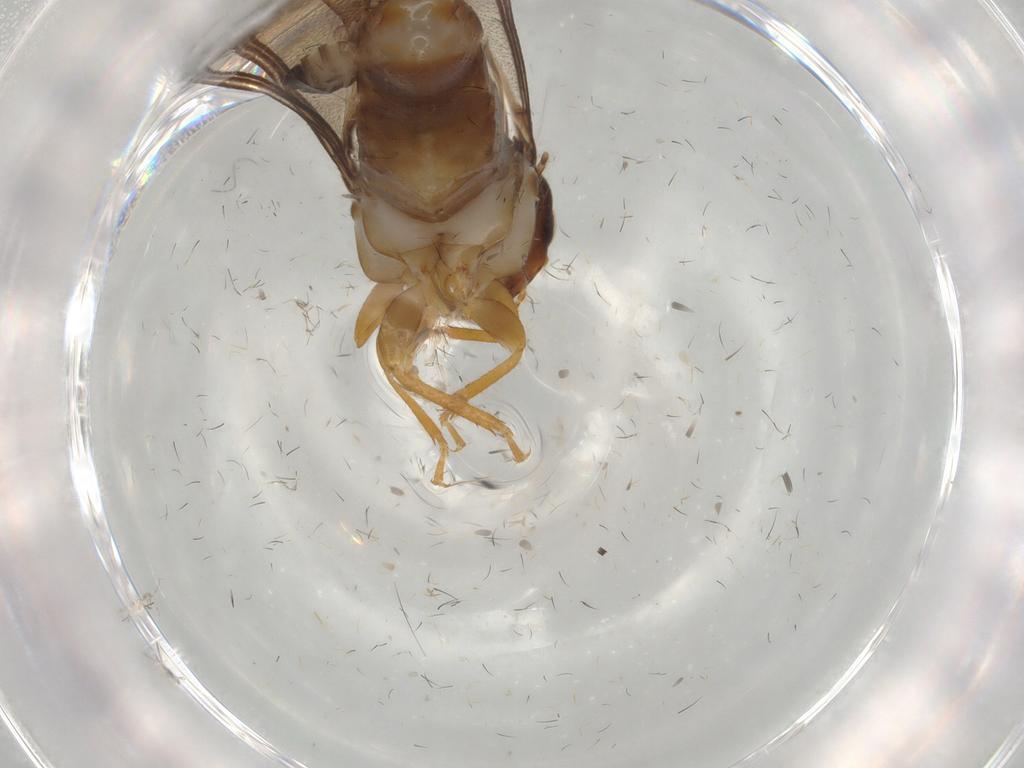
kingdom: Animalia
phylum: Arthropoda
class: Insecta
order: Blattodea
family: Kalotermitidae
